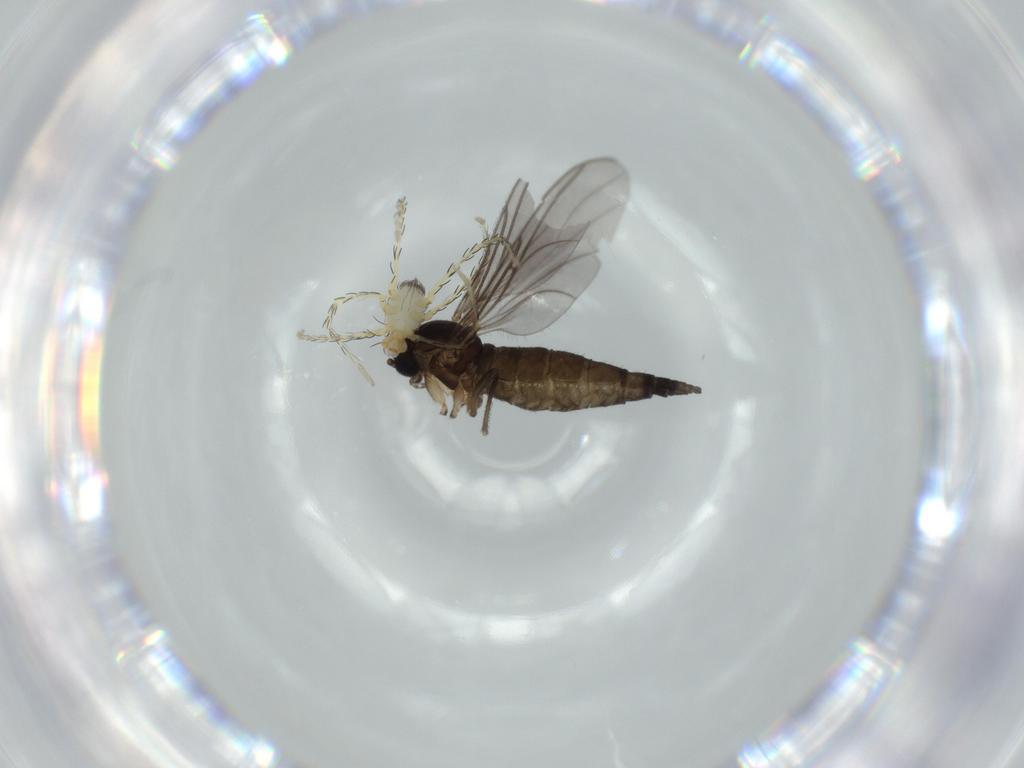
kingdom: Animalia
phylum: Arthropoda
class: Arachnida
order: Trombidiformes
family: Erythraeidae
